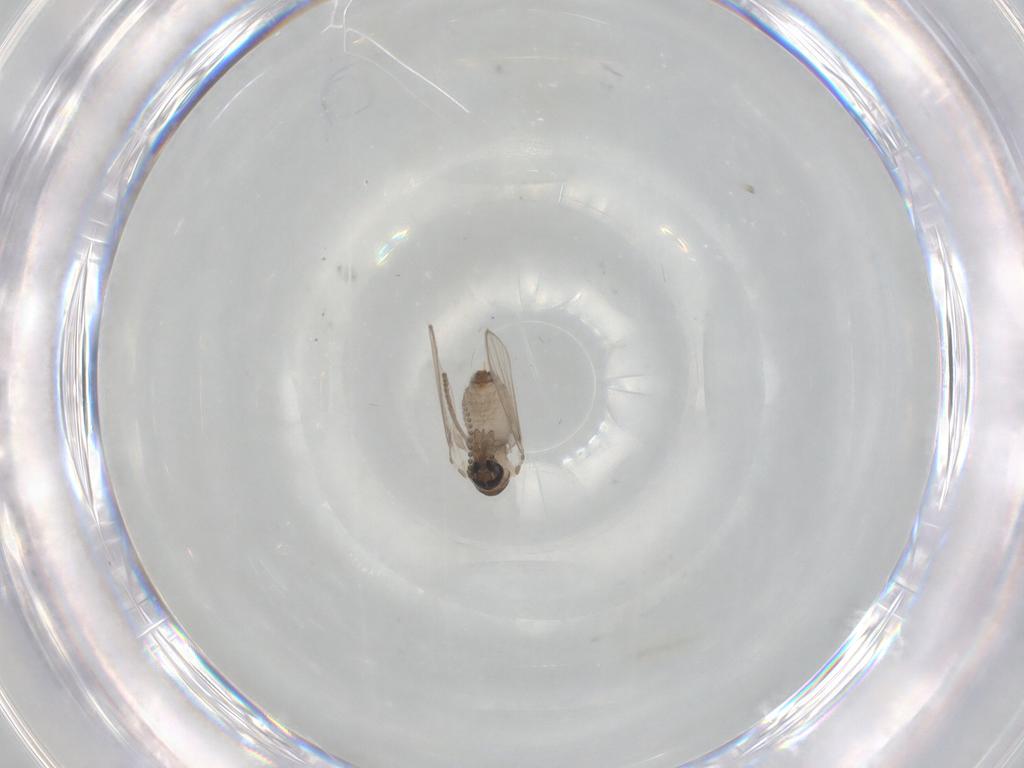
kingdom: Animalia
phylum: Arthropoda
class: Insecta
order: Diptera
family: Psychodidae
